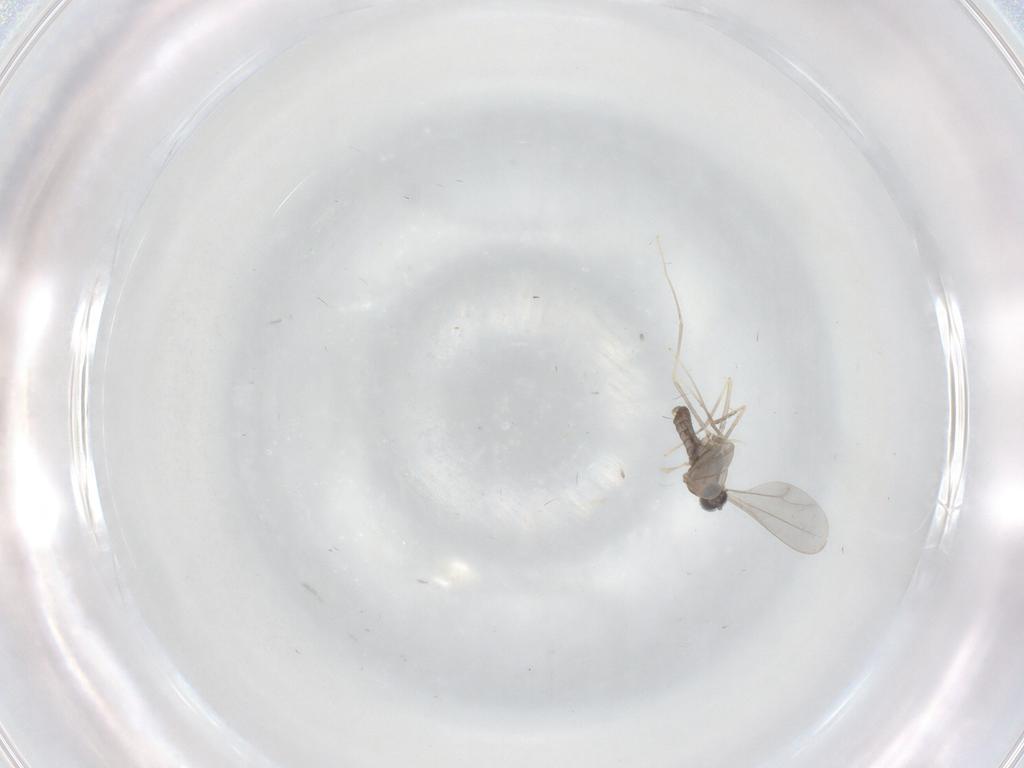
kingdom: Animalia
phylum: Arthropoda
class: Insecta
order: Diptera
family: Cecidomyiidae
